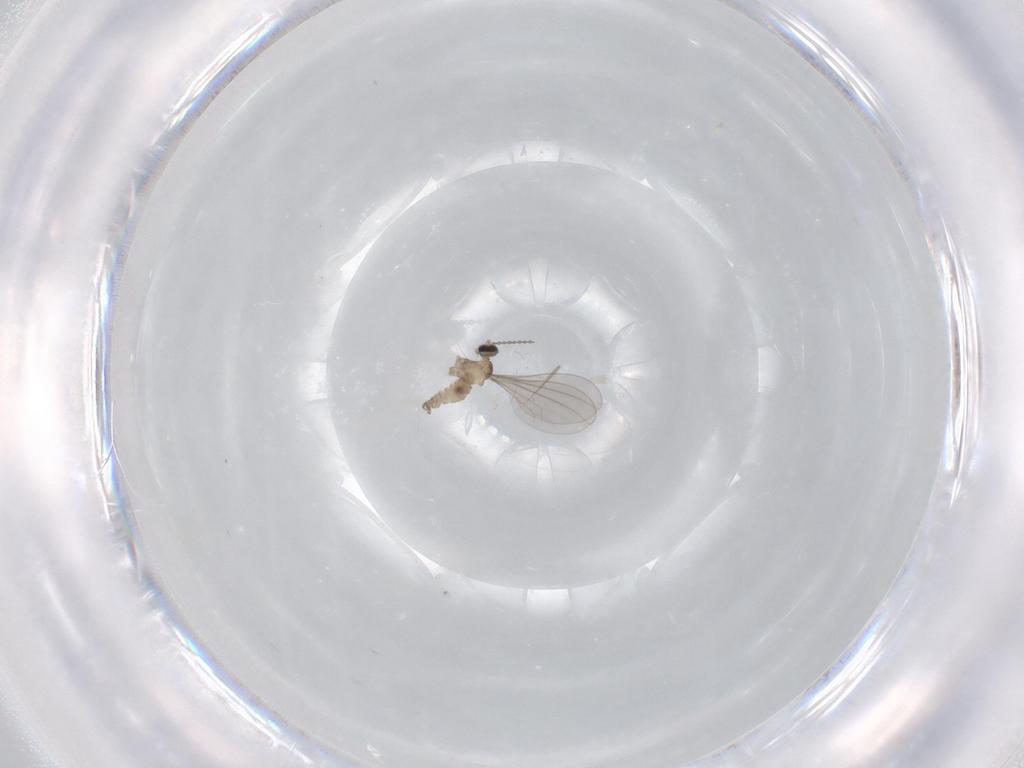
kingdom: Animalia
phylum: Arthropoda
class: Insecta
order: Diptera
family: Cecidomyiidae
